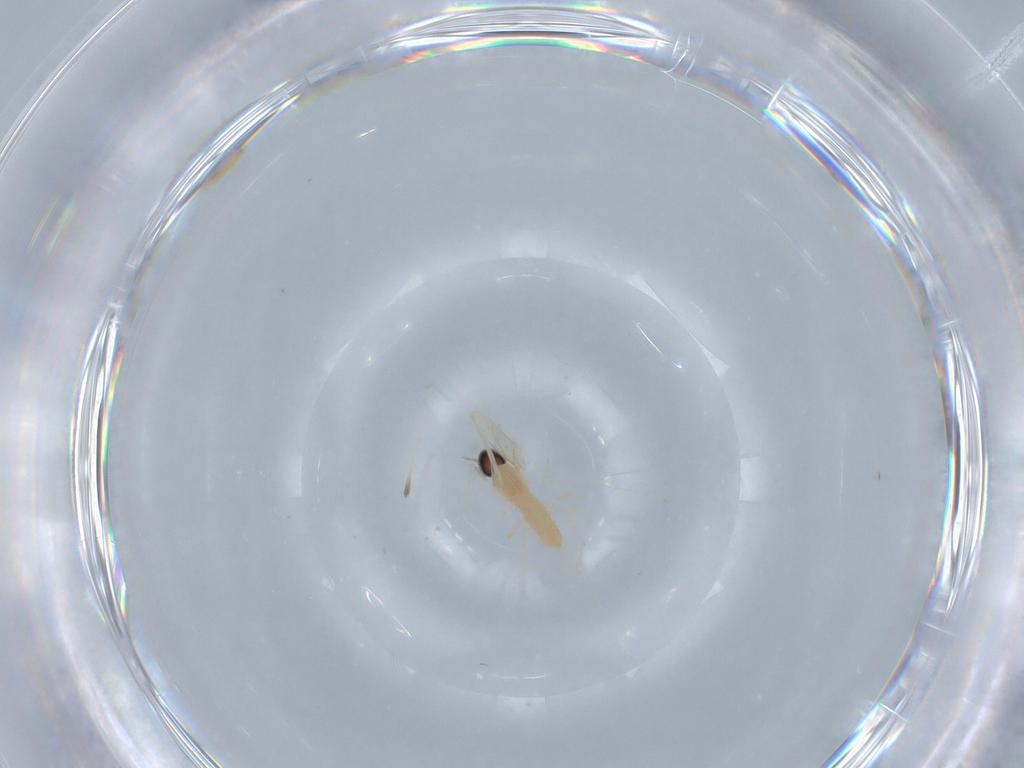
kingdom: Animalia
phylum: Arthropoda
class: Insecta
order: Diptera
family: Cecidomyiidae
